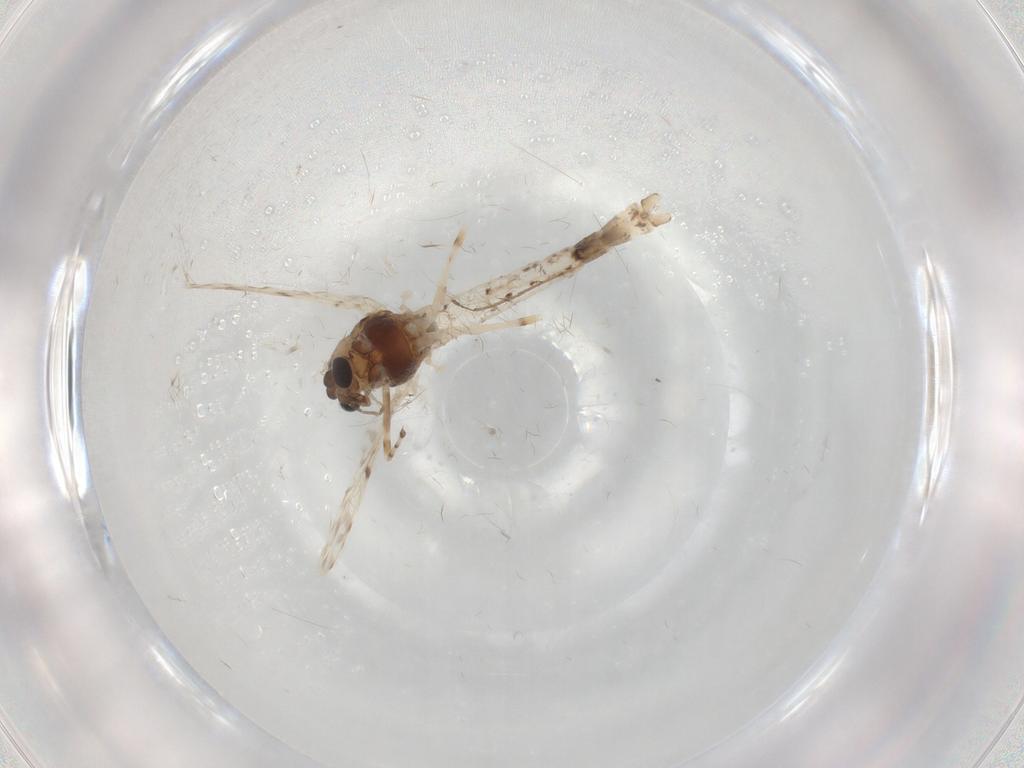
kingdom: Animalia
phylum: Arthropoda
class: Insecta
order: Diptera
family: Chironomidae
